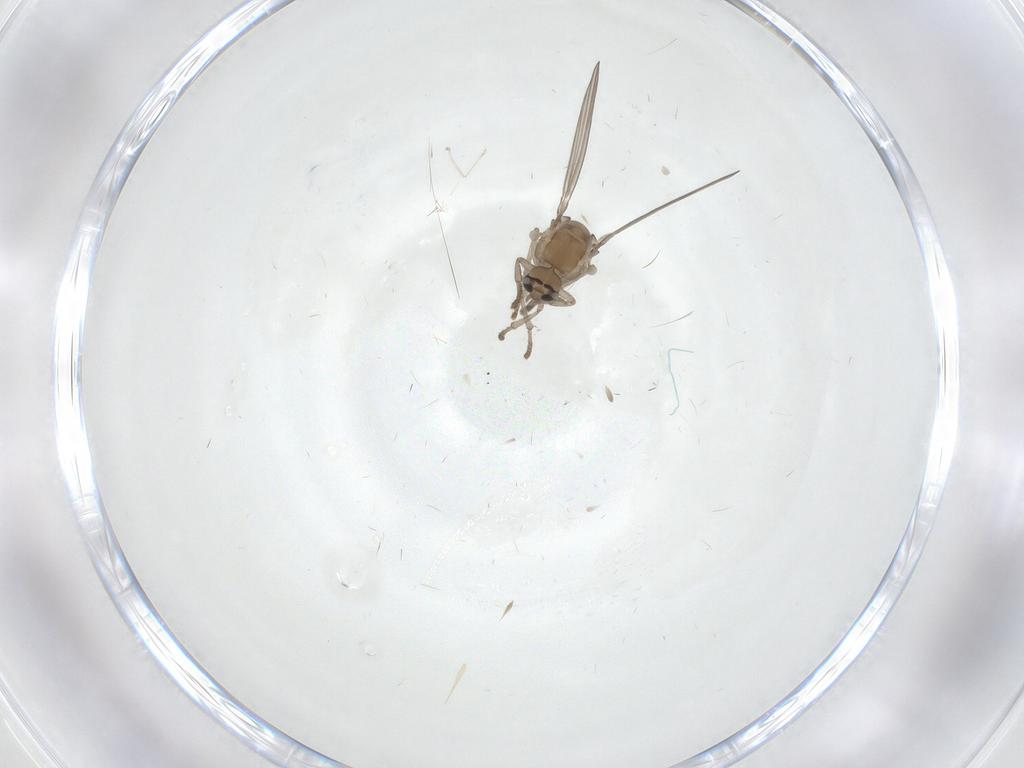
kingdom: Animalia
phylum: Arthropoda
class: Insecta
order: Diptera
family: Psychodidae
